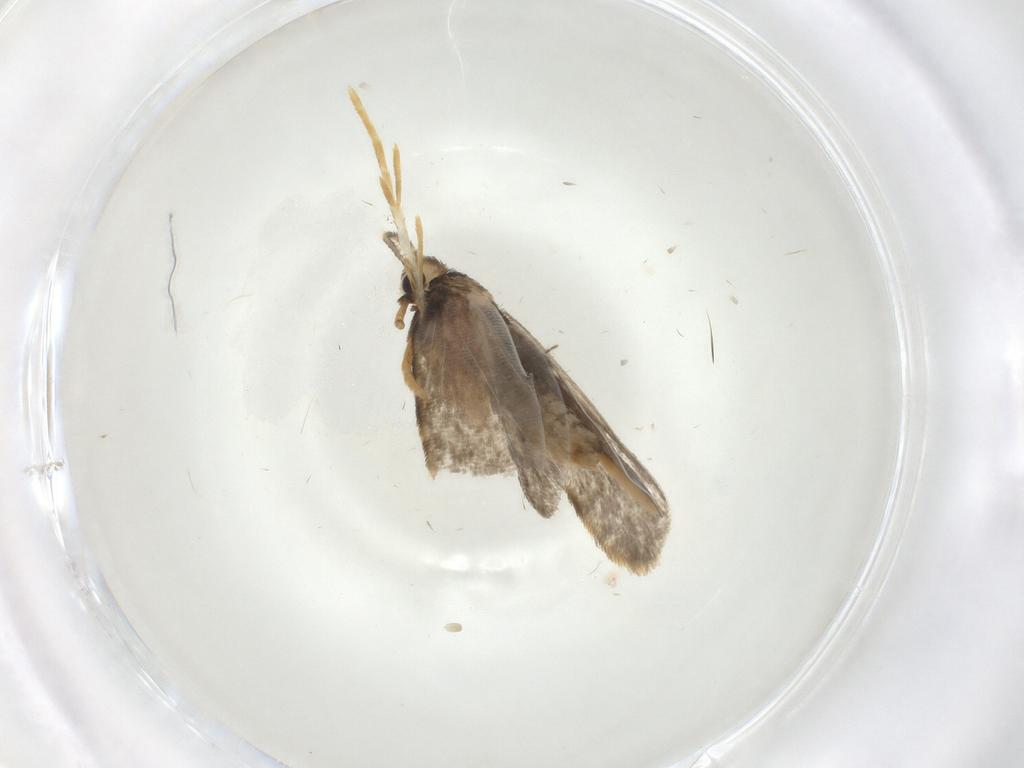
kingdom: Animalia
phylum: Arthropoda
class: Insecta
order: Lepidoptera
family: Psychidae
